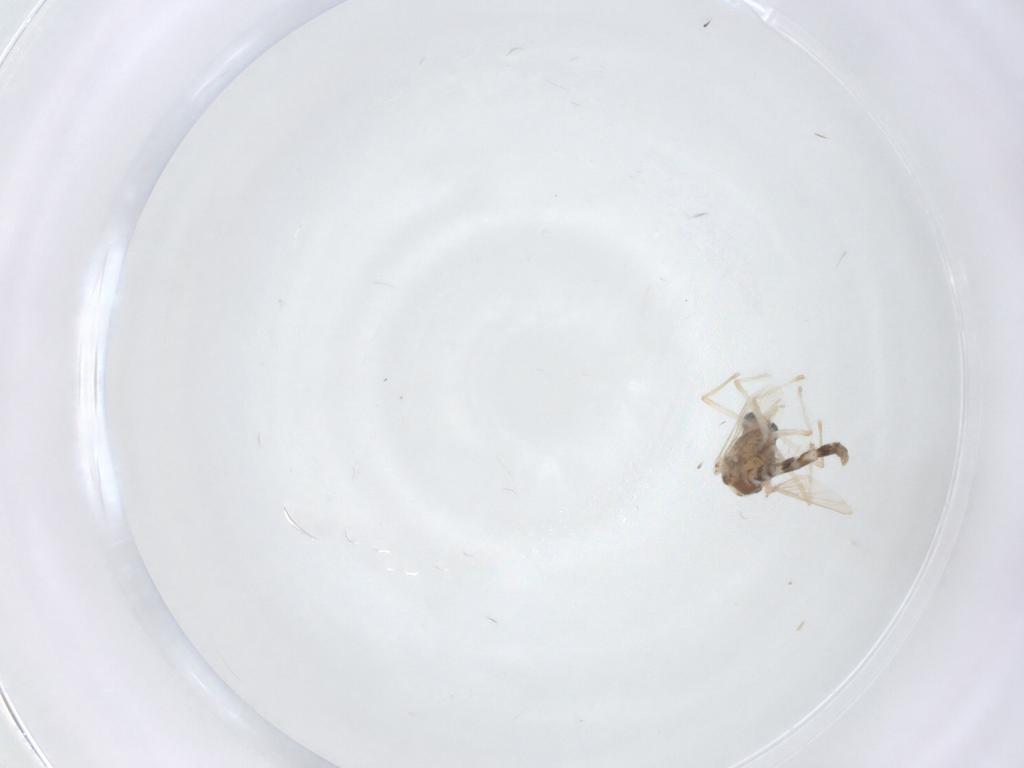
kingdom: Animalia
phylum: Arthropoda
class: Insecta
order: Diptera
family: Chironomidae
